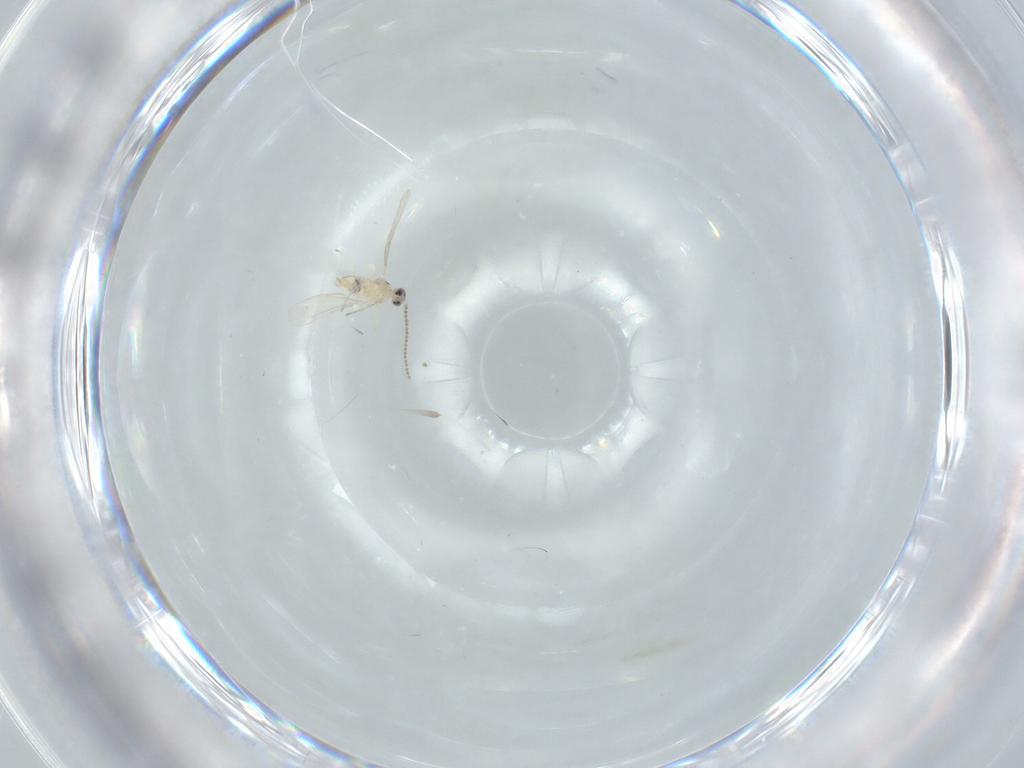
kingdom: Animalia
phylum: Arthropoda
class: Insecta
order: Diptera
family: Cecidomyiidae
